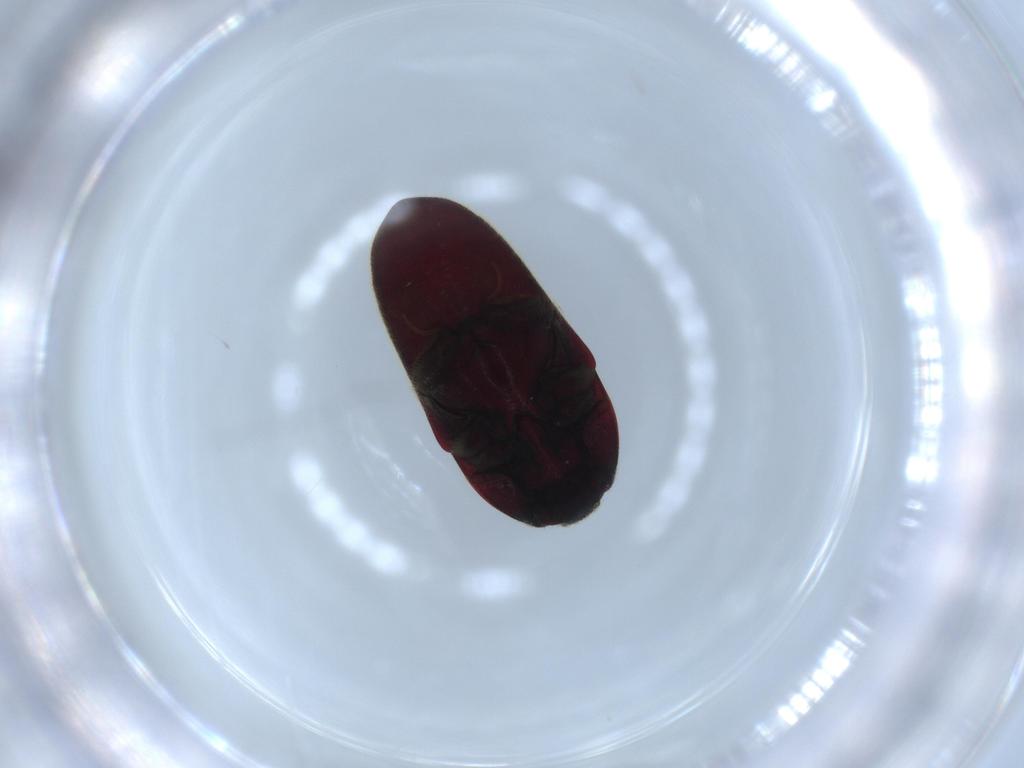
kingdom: Animalia
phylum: Arthropoda
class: Insecta
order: Coleoptera
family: Throscidae
